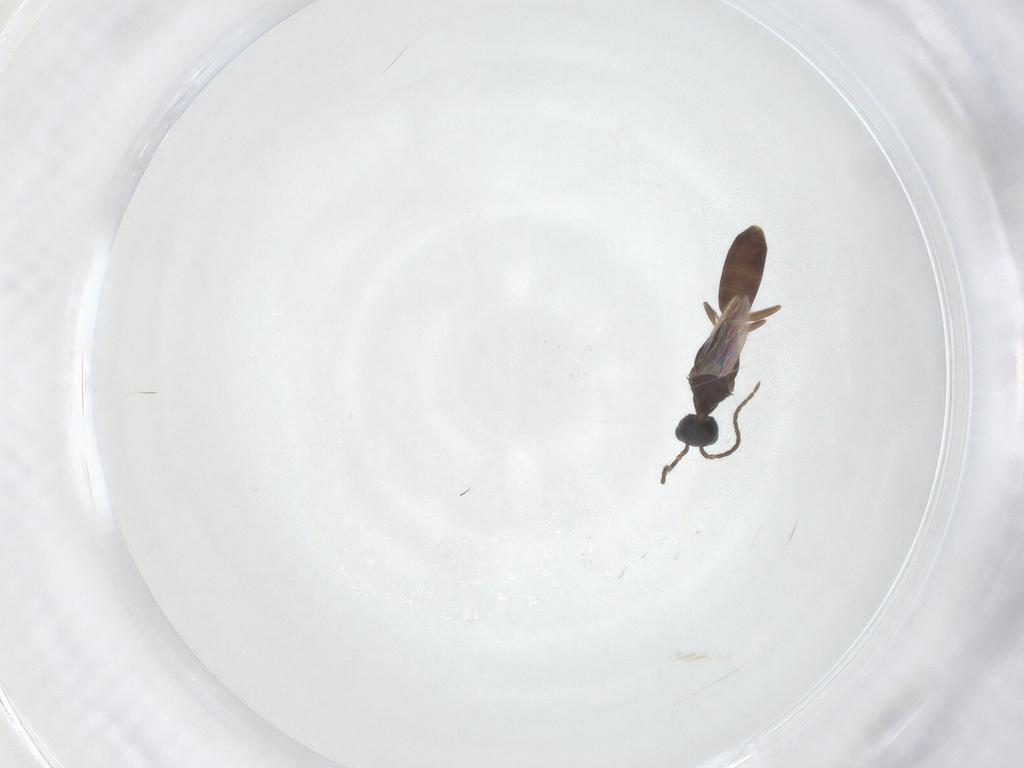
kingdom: Animalia
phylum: Arthropoda
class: Insecta
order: Hymenoptera
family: Bethylidae
